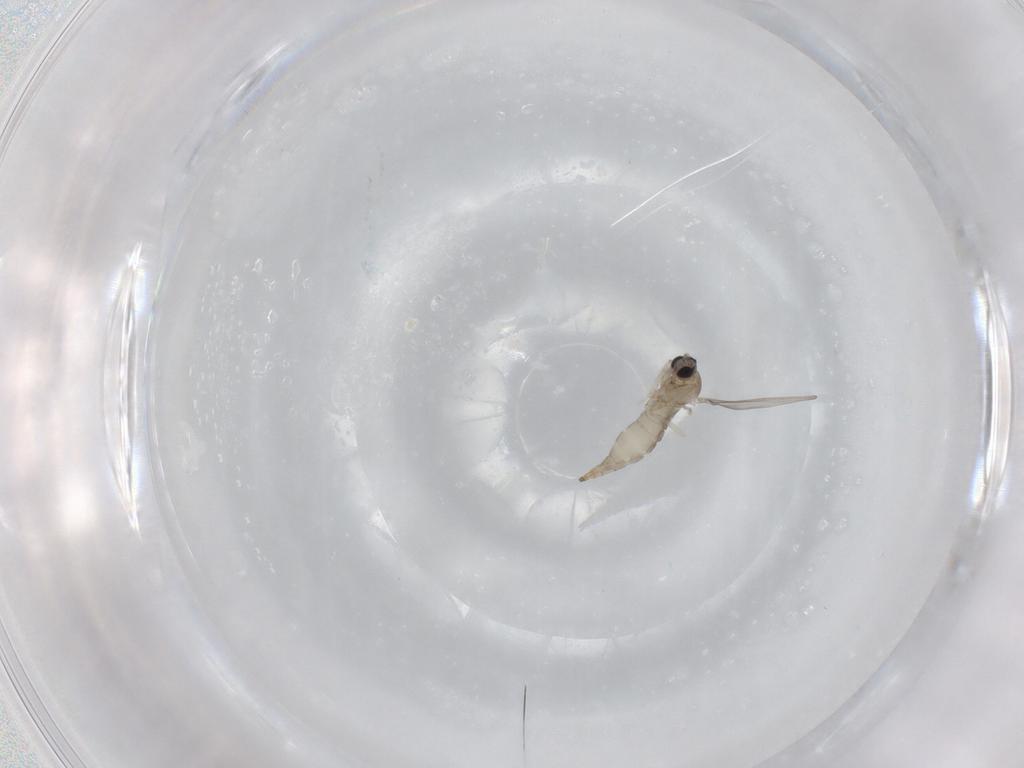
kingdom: Animalia
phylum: Arthropoda
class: Insecta
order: Diptera
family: Cecidomyiidae
